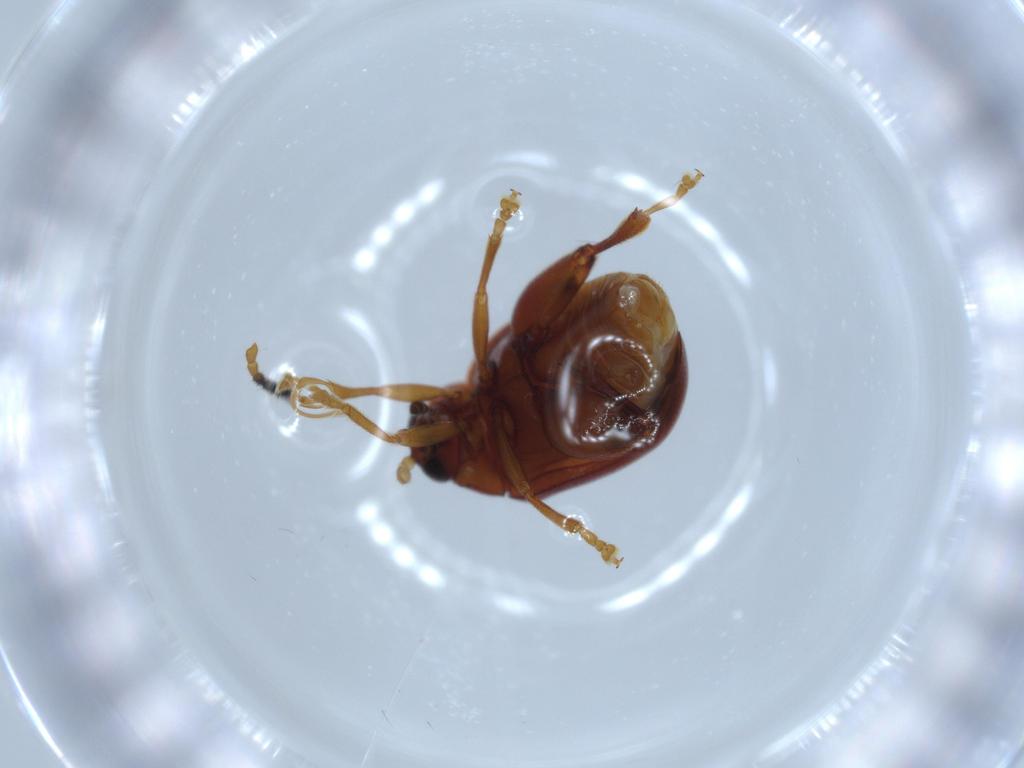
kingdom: Animalia
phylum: Arthropoda
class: Insecta
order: Coleoptera
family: Chrysomelidae
